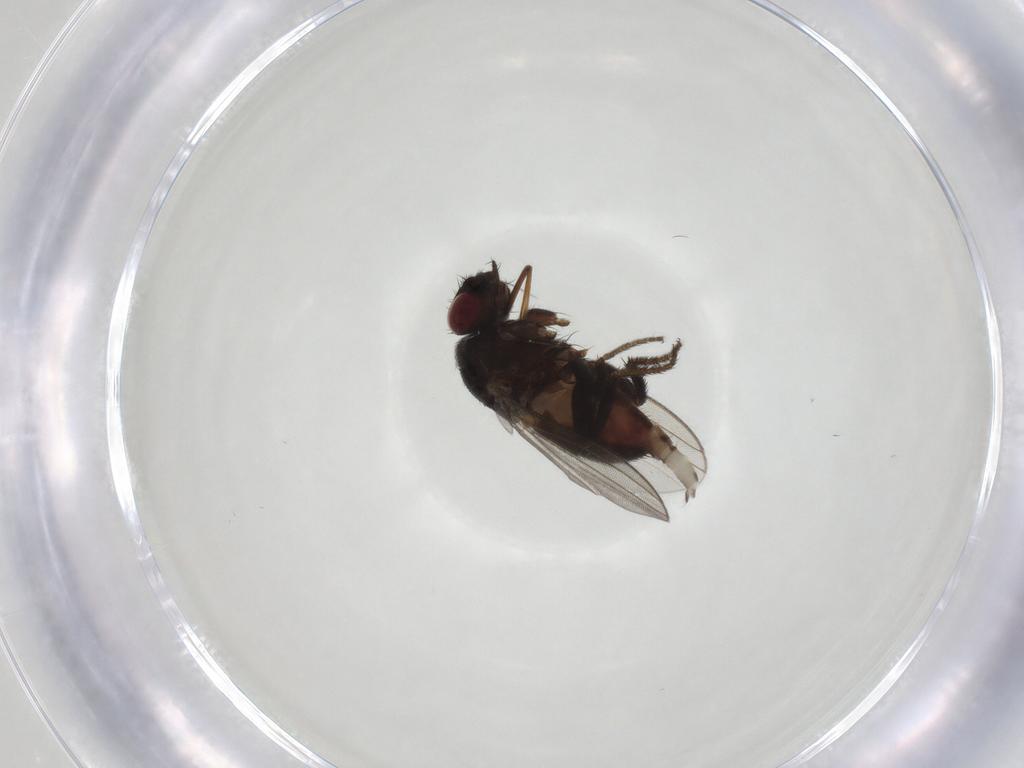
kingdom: Animalia
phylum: Arthropoda
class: Insecta
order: Diptera
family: Milichiidae
